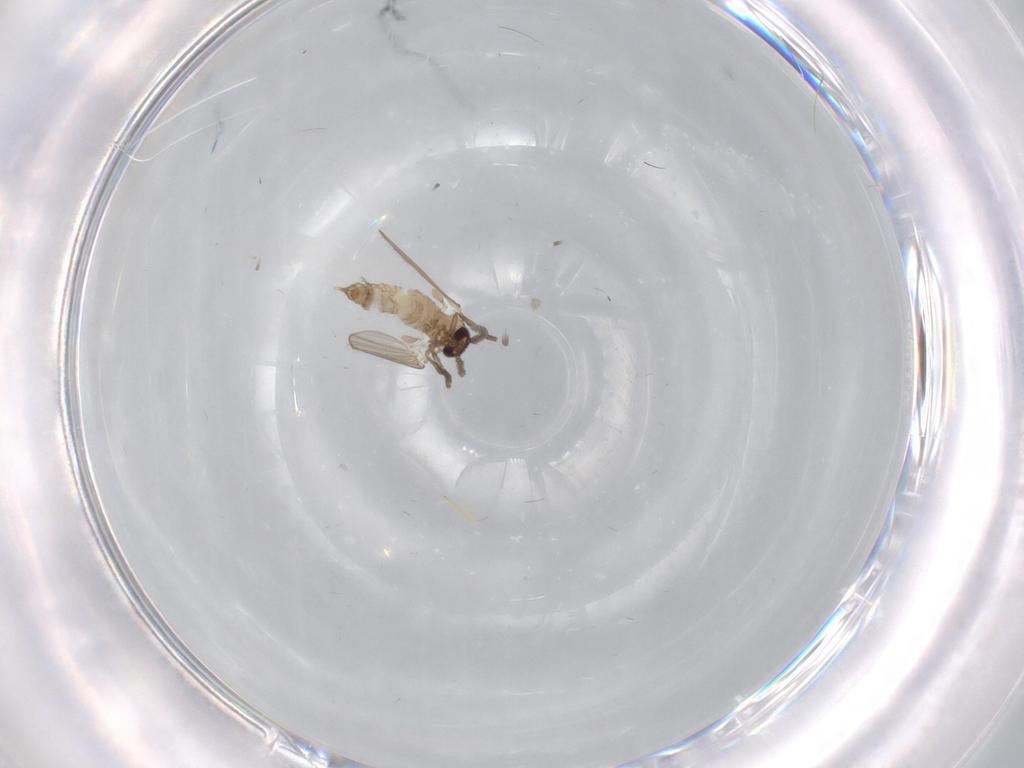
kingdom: Animalia
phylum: Arthropoda
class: Insecta
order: Diptera
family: Psychodidae
